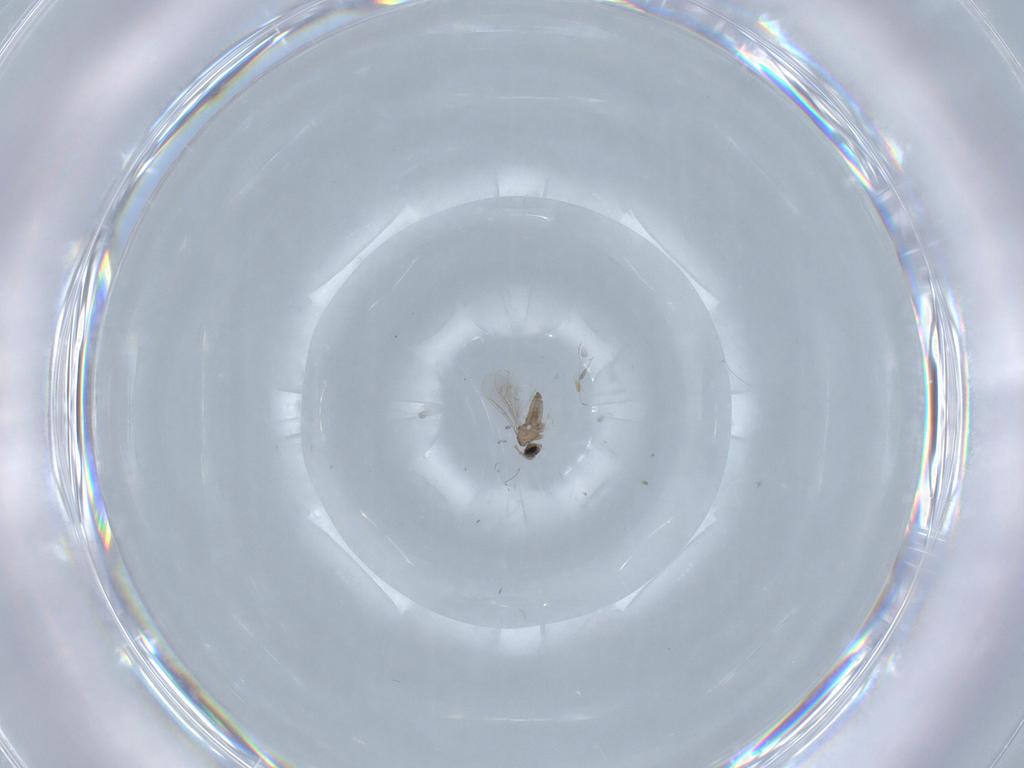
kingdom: Animalia
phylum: Arthropoda
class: Insecta
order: Diptera
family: Cecidomyiidae
